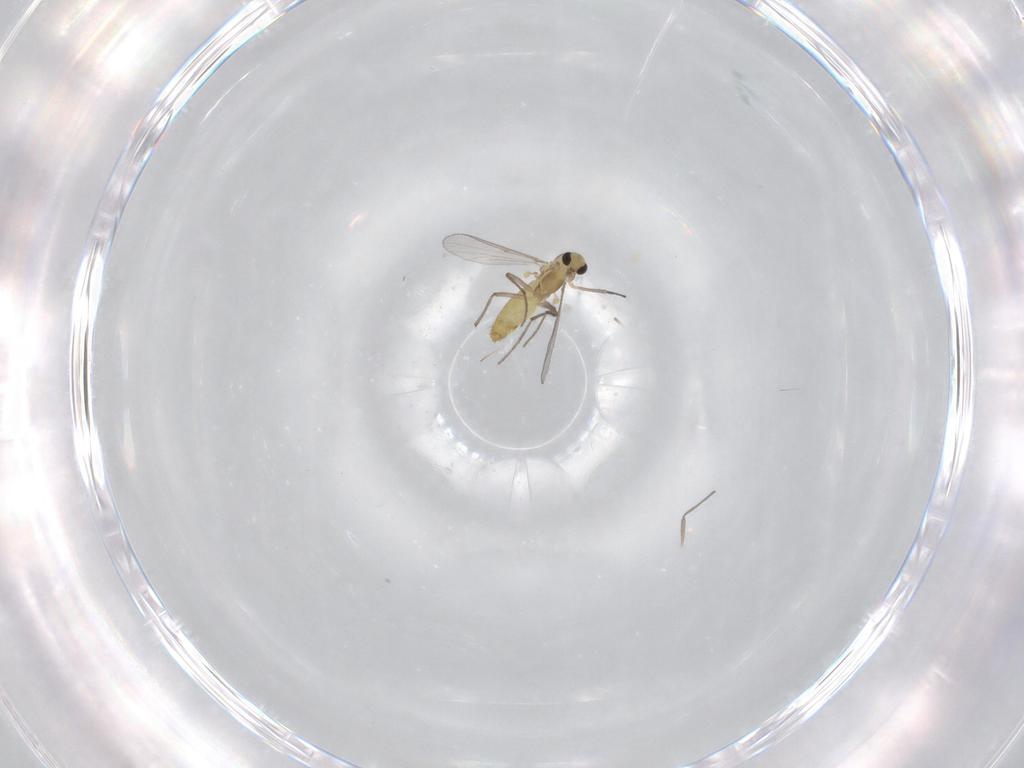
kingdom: Animalia
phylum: Arthropoda
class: Insecta
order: Diptera
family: Chironomidae
